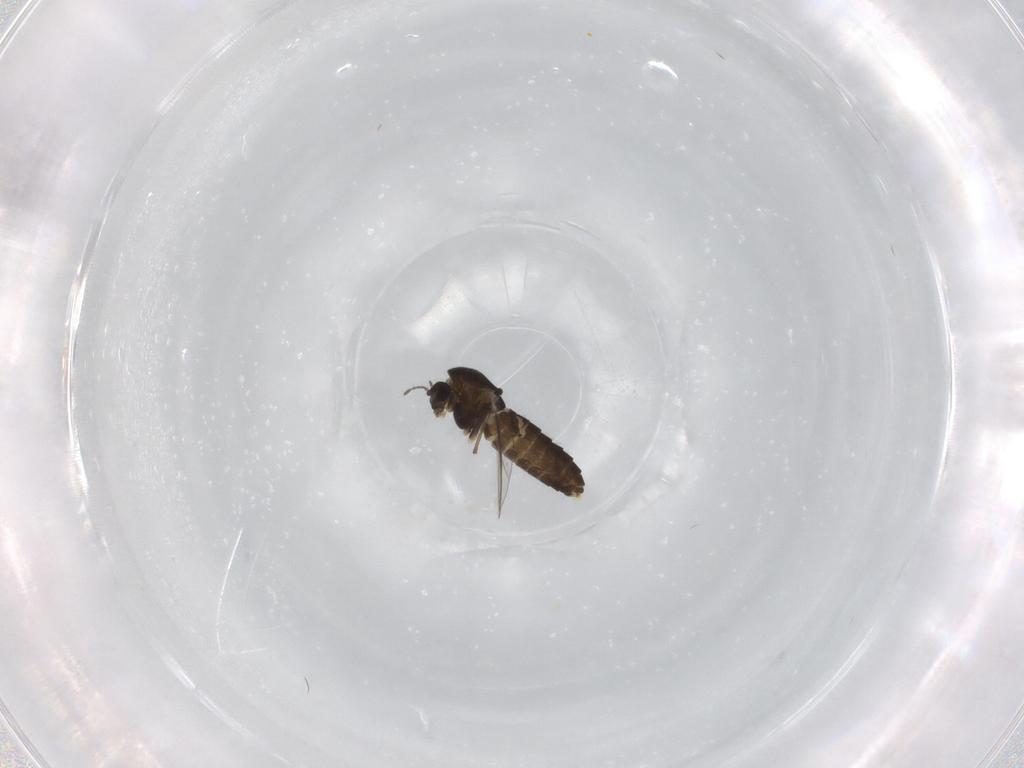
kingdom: Animalia
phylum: Arthropoda
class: Insecta
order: Diptera
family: Chironomidae
